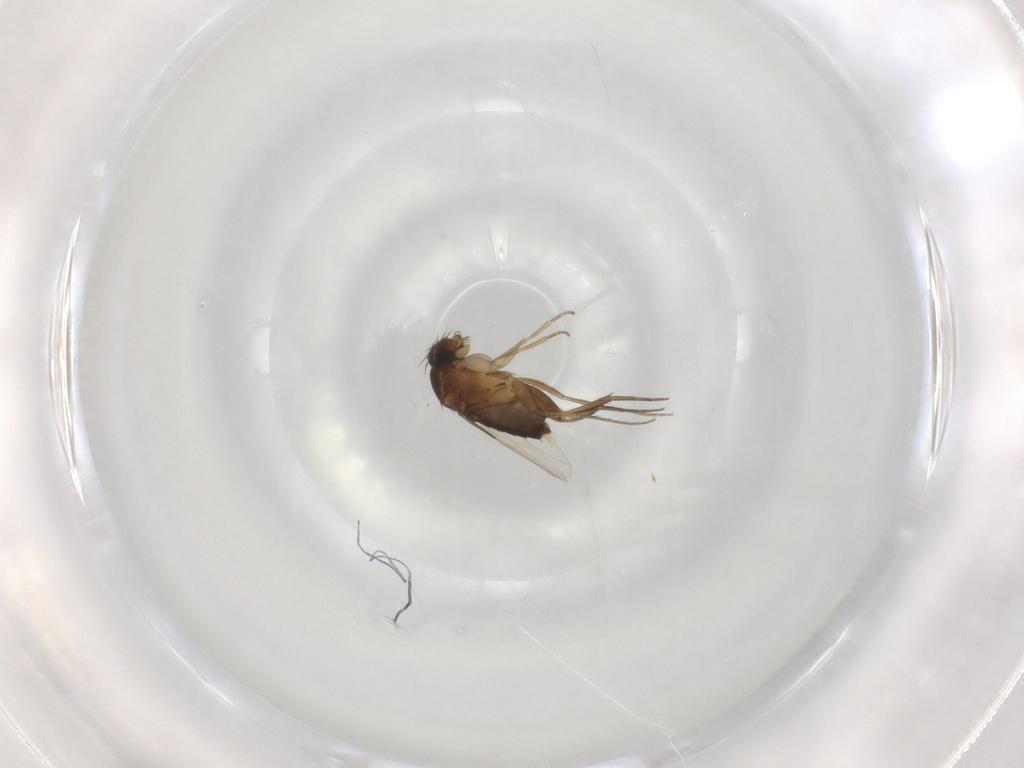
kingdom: Animalia
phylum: Arthropoda
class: Insecta
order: Diptera
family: Phoridae
